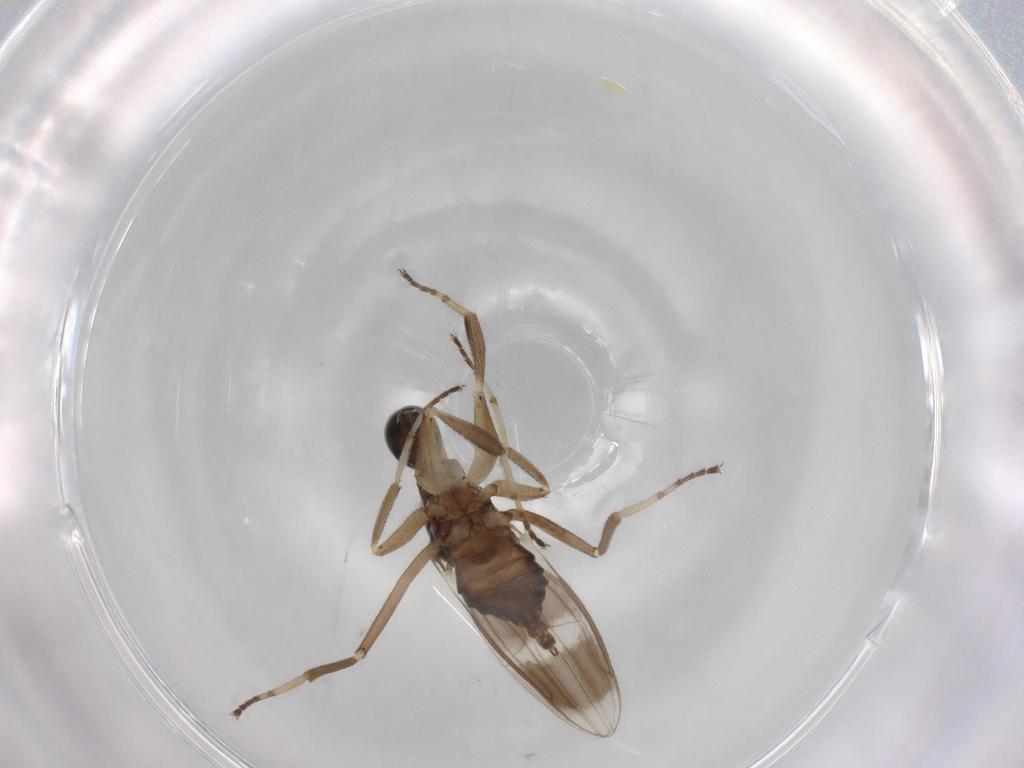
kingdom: Animalia
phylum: Arthropoda
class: Insecta
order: Diptera
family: Hybotidae
